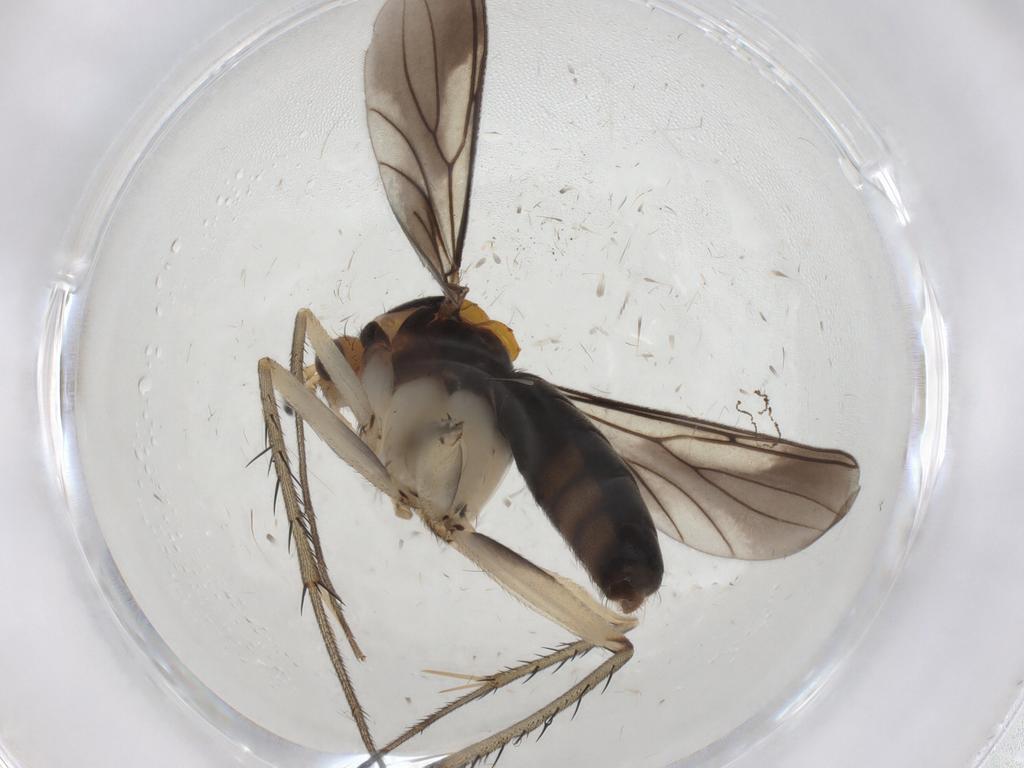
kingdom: Animalia
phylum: Arthropoda
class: Insecta
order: Diptera
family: Mycetophilidae
